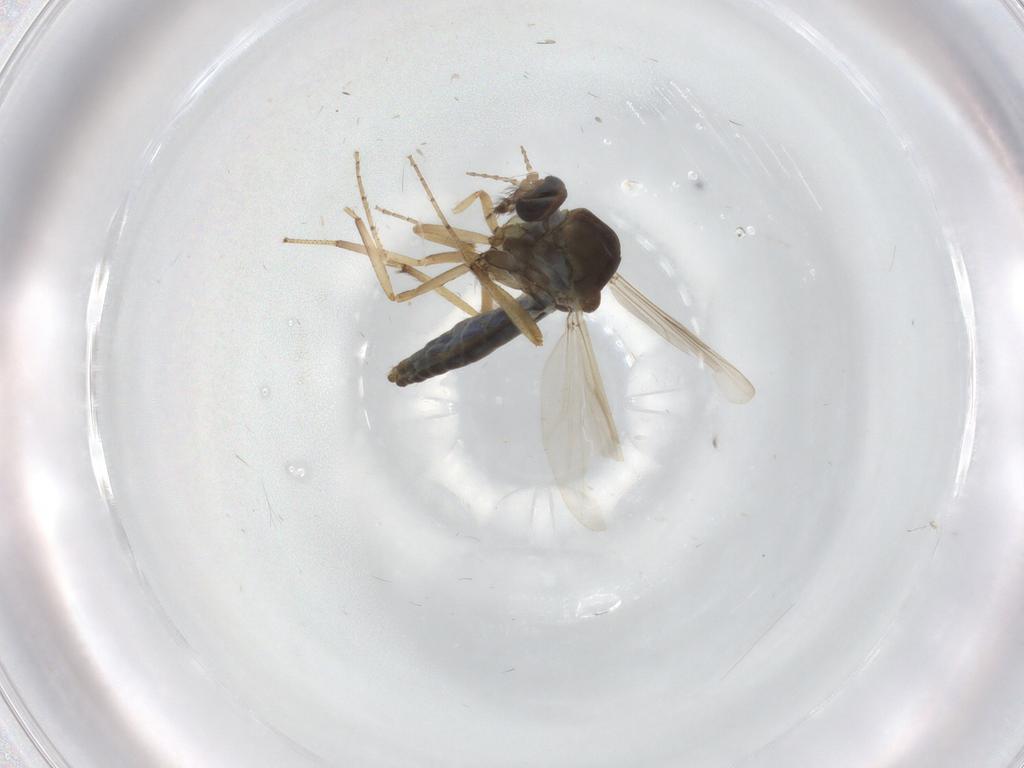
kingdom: Animalia
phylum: Arthropoda
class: Insecta
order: Diptera
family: Ceratopogonidae
